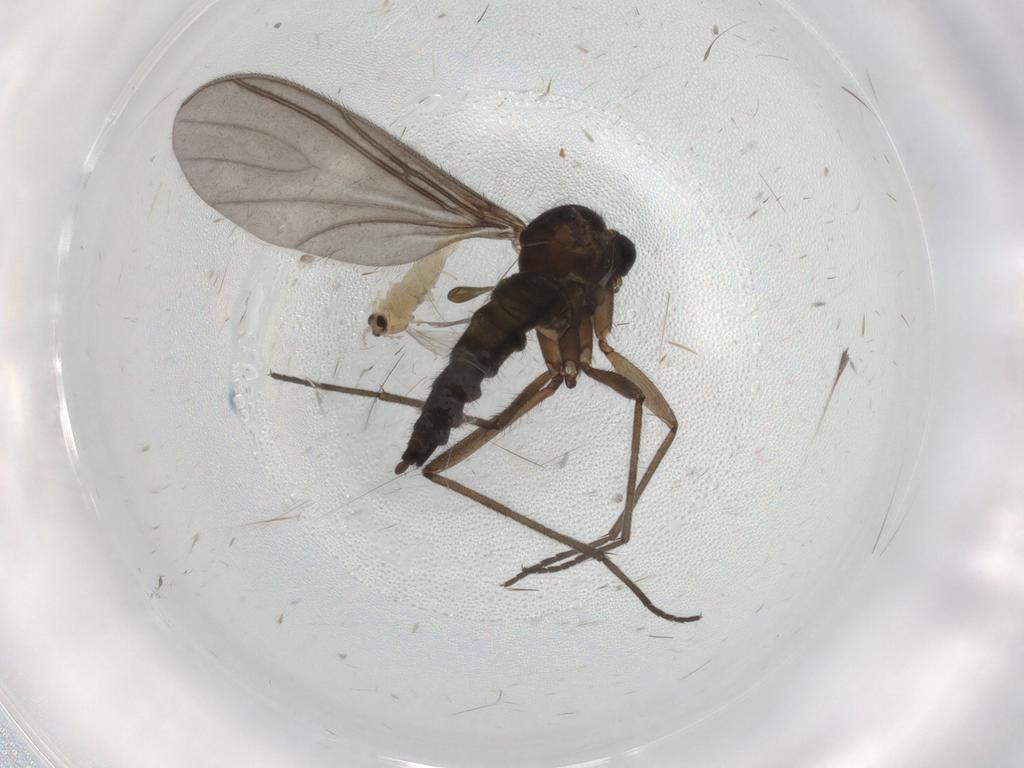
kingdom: Animalia
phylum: Arthropoda
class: Insecta
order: Diptera
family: Sciaridae
